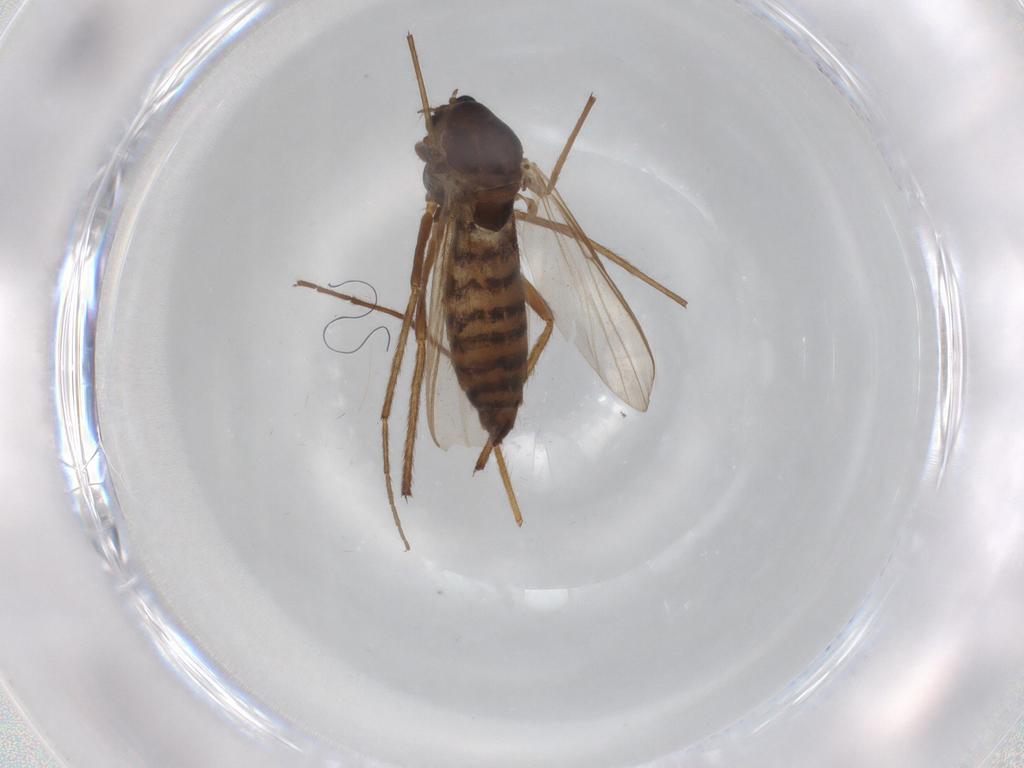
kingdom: Animalia
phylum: Arthropoda
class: Insecta
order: Diptera
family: Chironomidae
